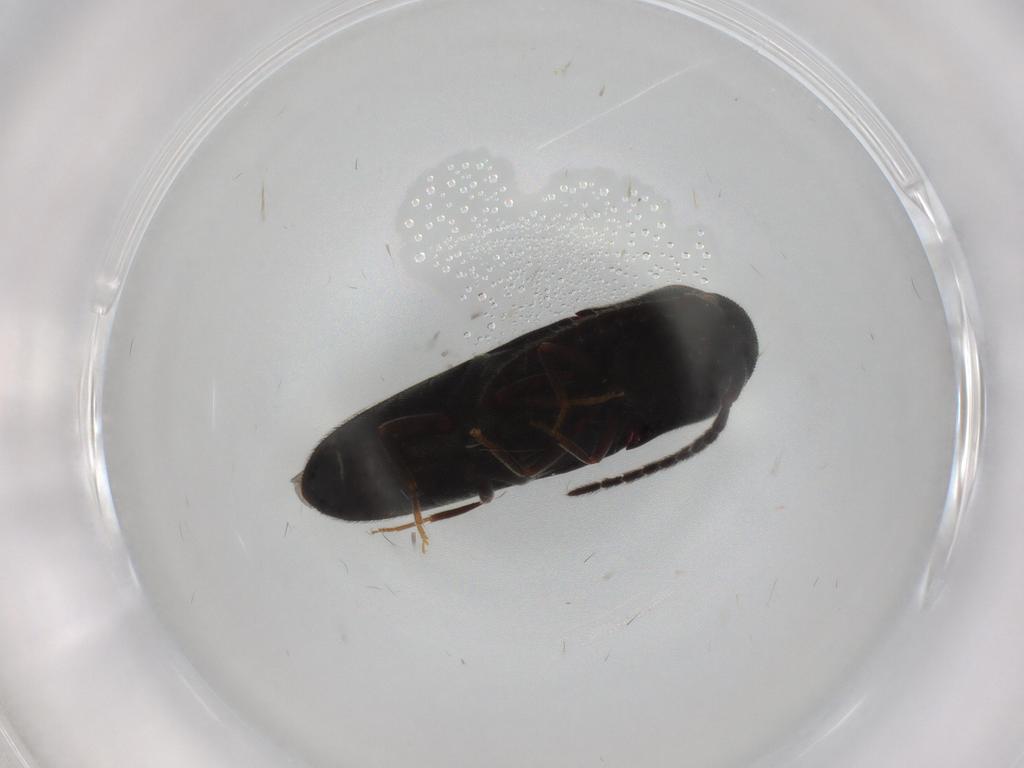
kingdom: Animalia
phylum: Arthropoda
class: Insecta
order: Coleoptera
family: Eucnemidae
